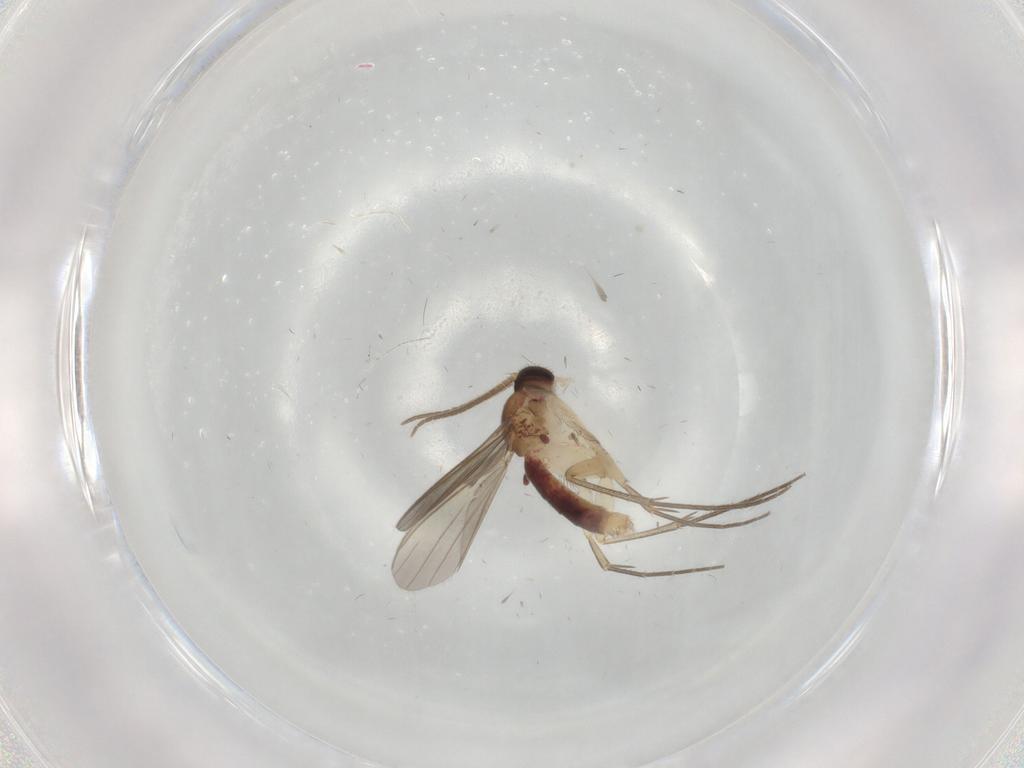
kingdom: Animalia
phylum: Arthropoda
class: Insecta
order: Diptera
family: Mycetophilidae
